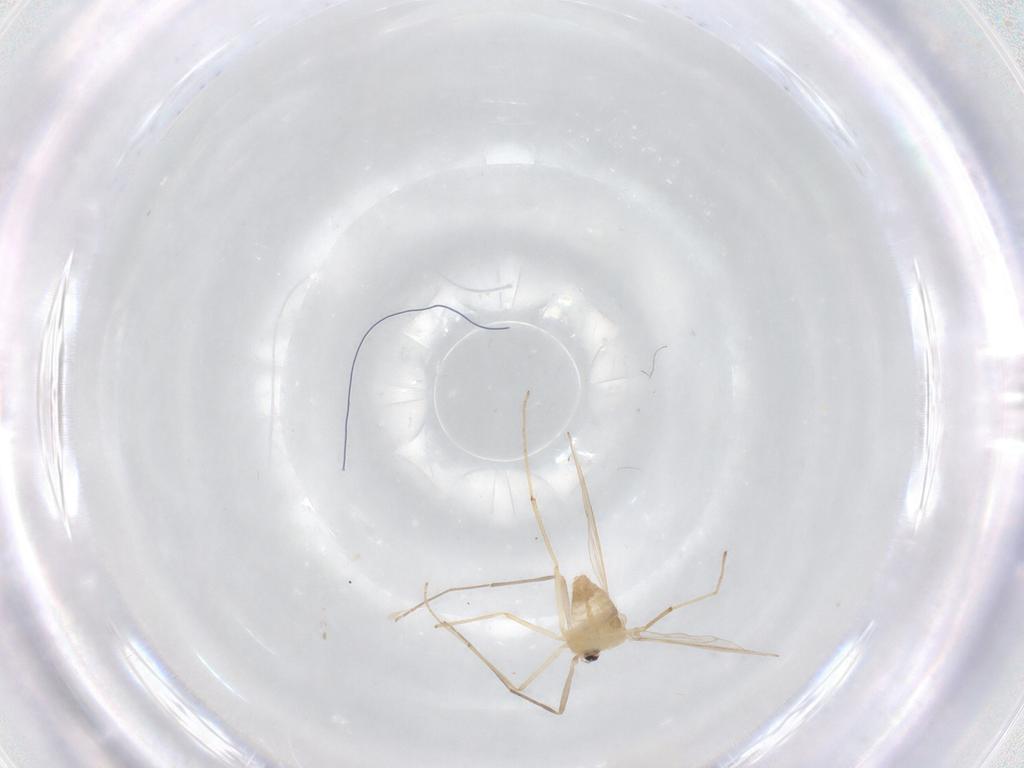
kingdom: Animalia
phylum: Arthropoda
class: Insecta
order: Diptera
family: Chironomidae
